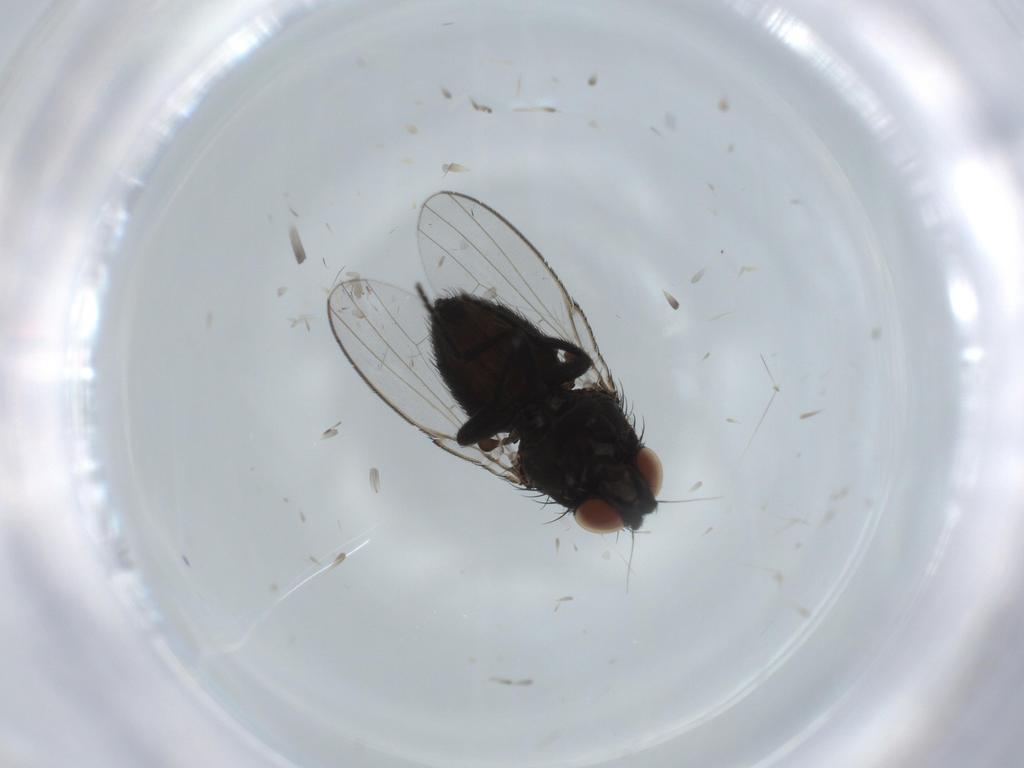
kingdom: Animalia
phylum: Arthropoda
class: Insecta
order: Diptera
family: Milichiidae
